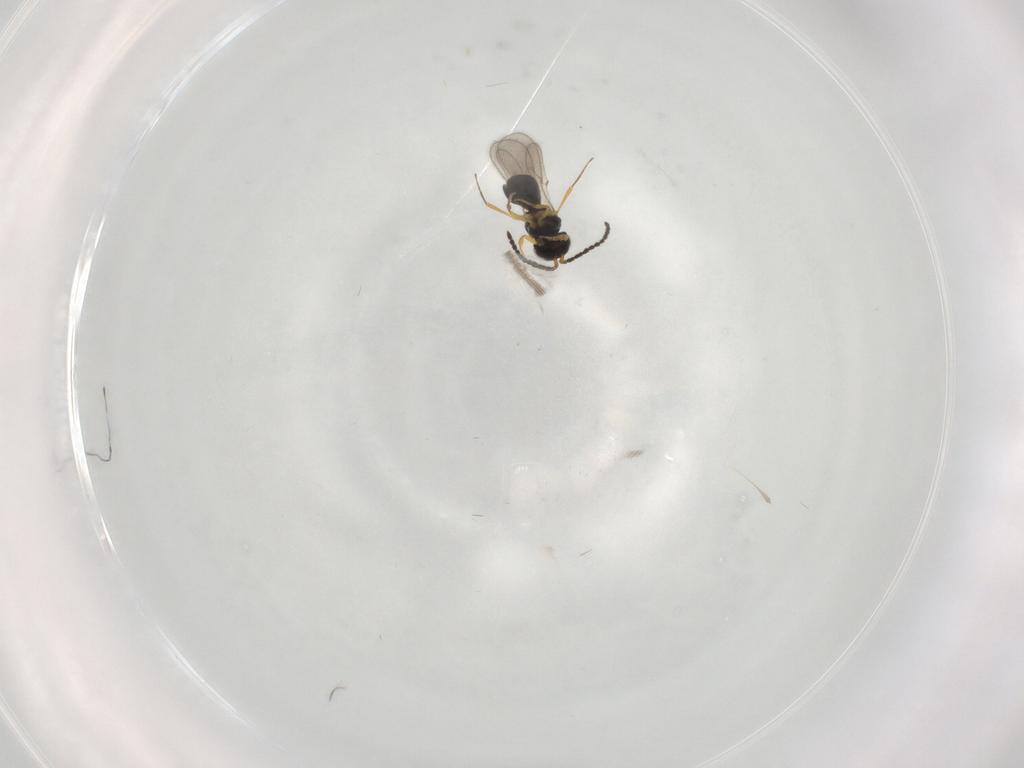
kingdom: Animalia
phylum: Arthropoda
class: Insecta
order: Hymenoptera
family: Scelionidae
